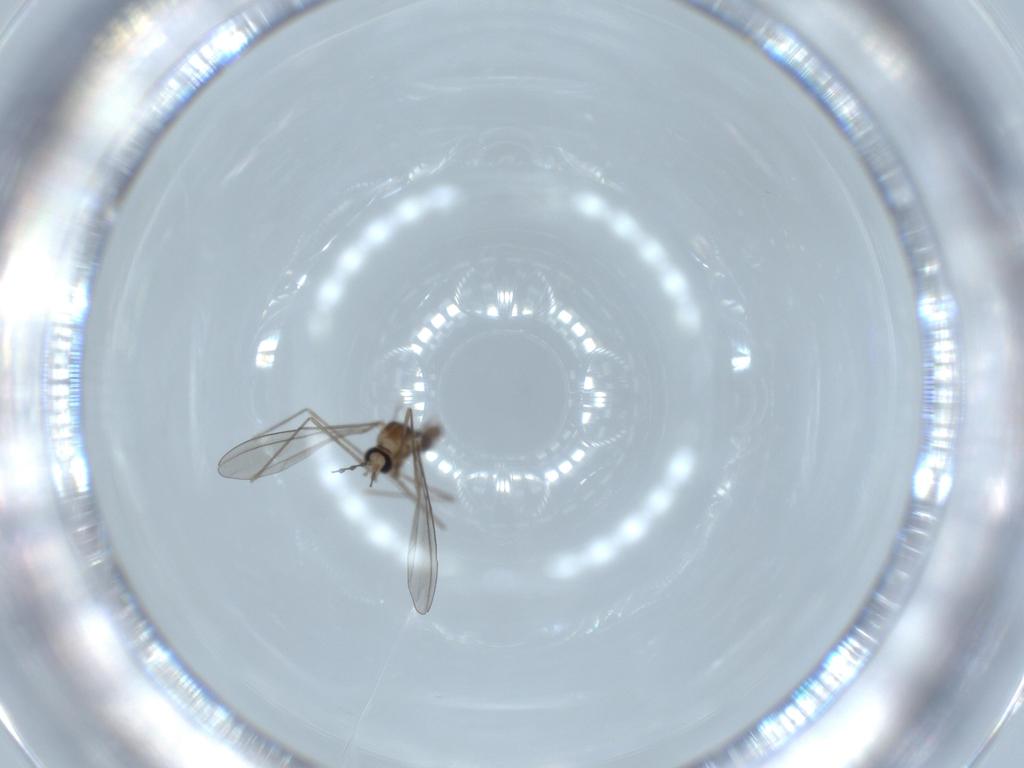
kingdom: Animalia
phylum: Arthropoda
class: Insecta
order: Diptera
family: Cecidomyiidae
